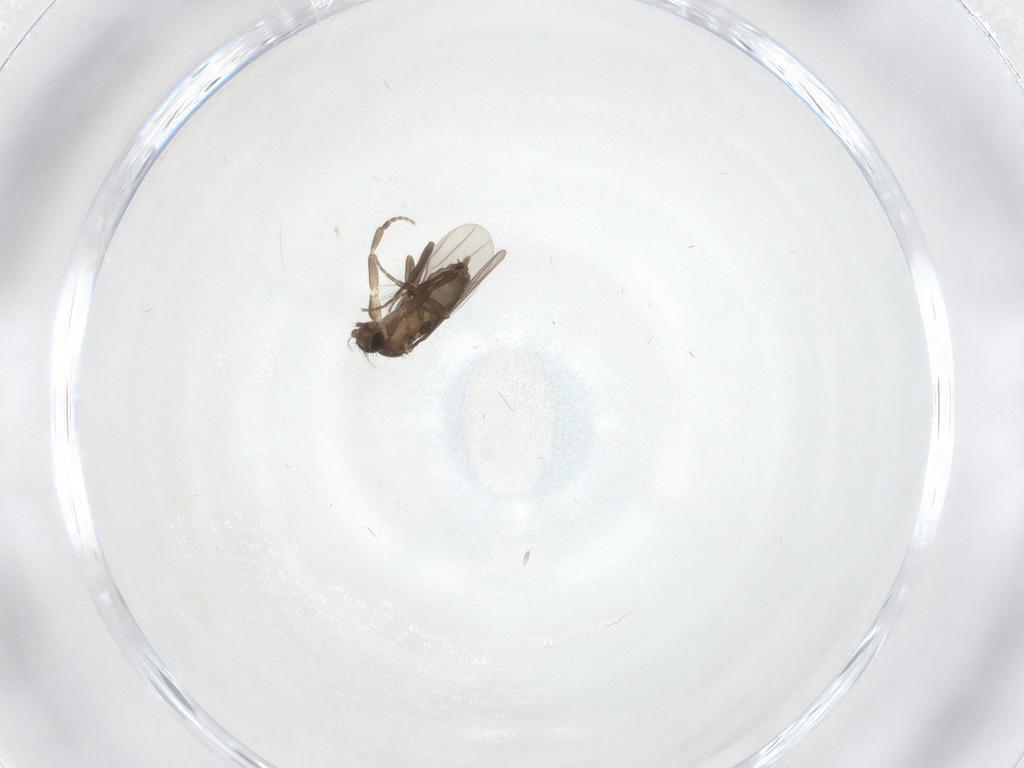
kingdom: Animalia
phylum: Arthropoda
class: Insecta
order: Diptera
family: Phoridae
